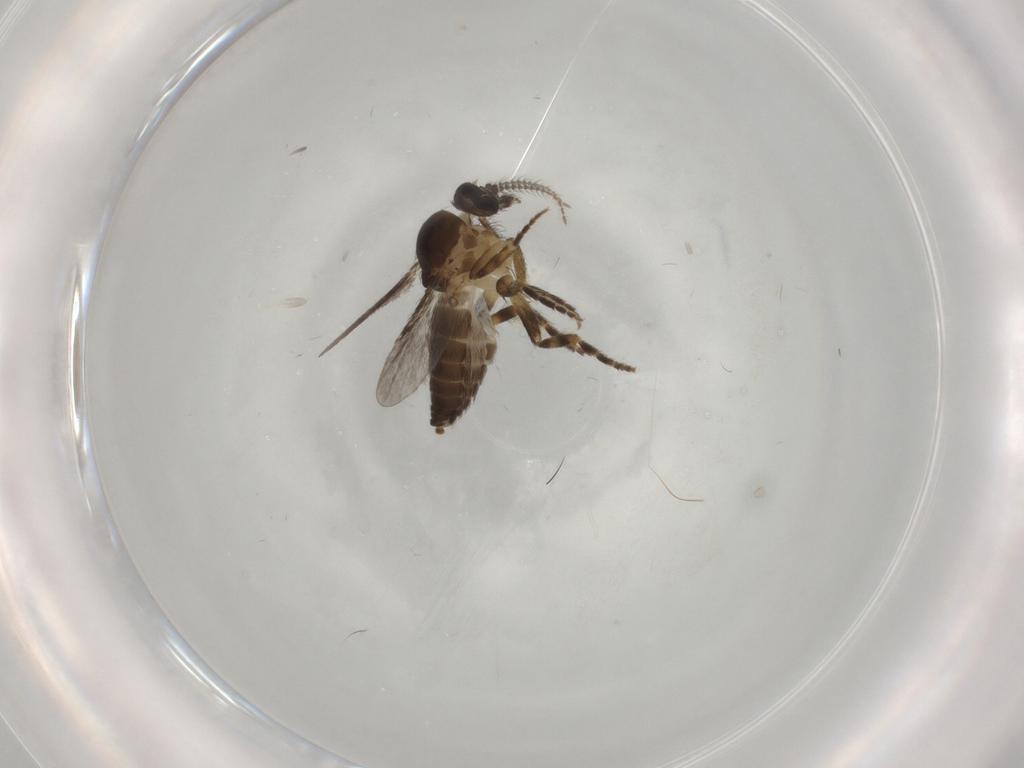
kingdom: Animalia
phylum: Arthropoda
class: Insecta
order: Diptera
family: Ceratopogonidae
